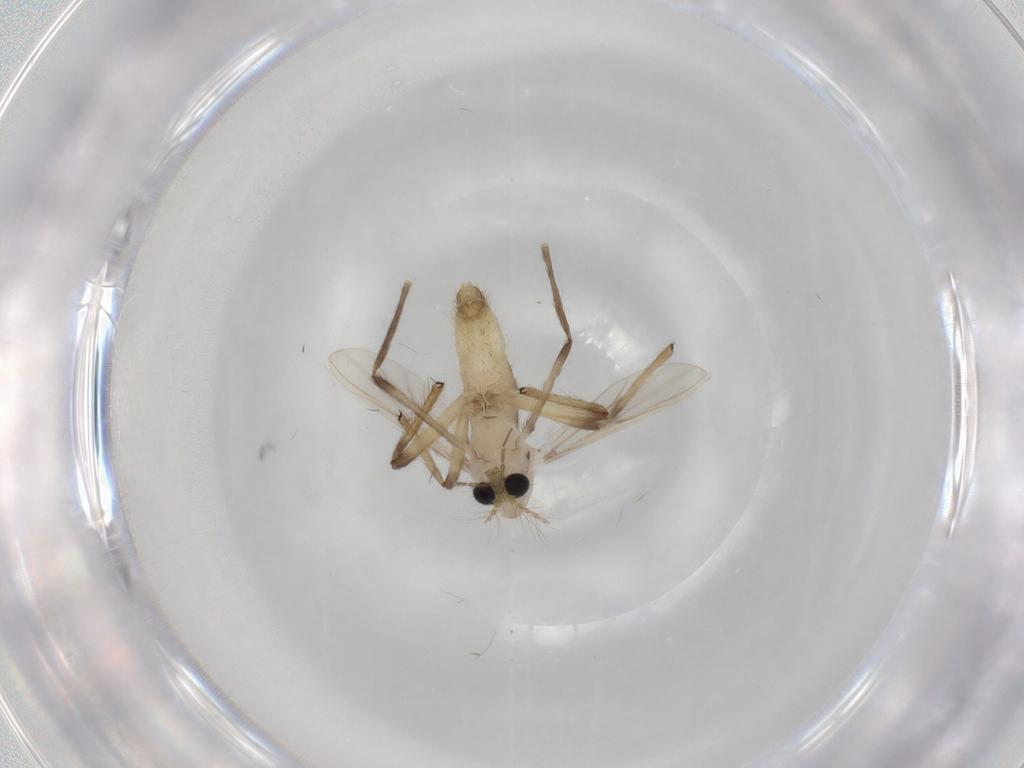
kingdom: Animalia
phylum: Arthropoda
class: Insecta
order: Diptera
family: Chironomidae
